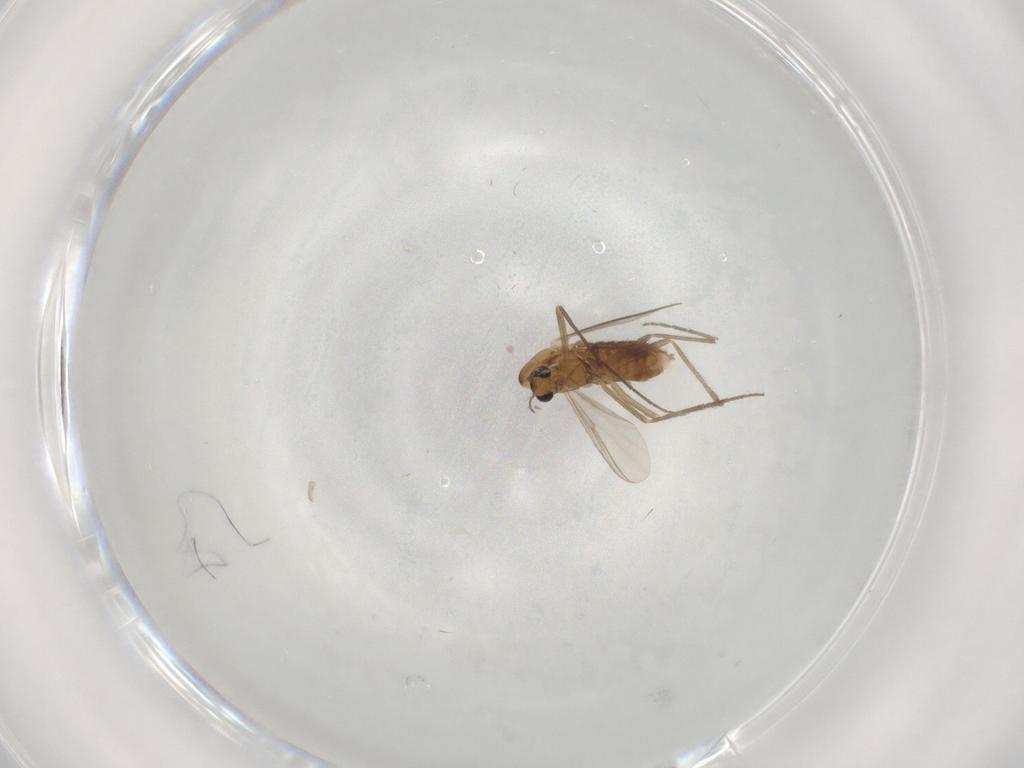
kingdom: Animalia
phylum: Arthropoda
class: Insecta
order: Diptera
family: Chironomidae
